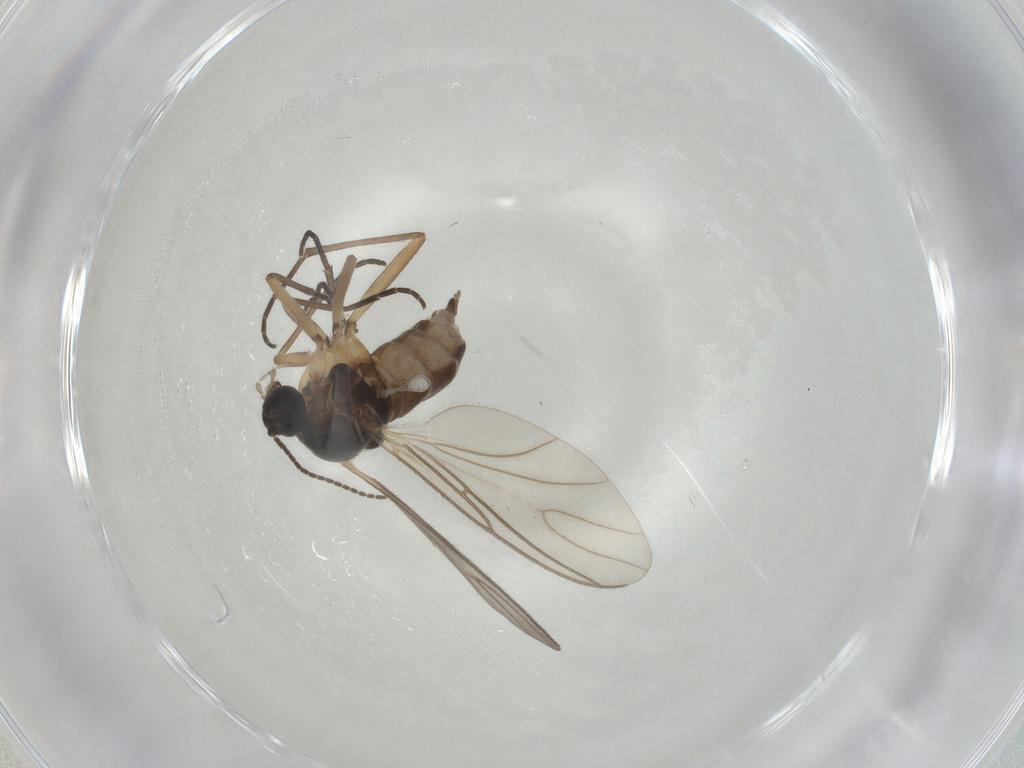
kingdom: Animalia
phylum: Arthropoda
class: Insecta
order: Diptera
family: Sciaridae
